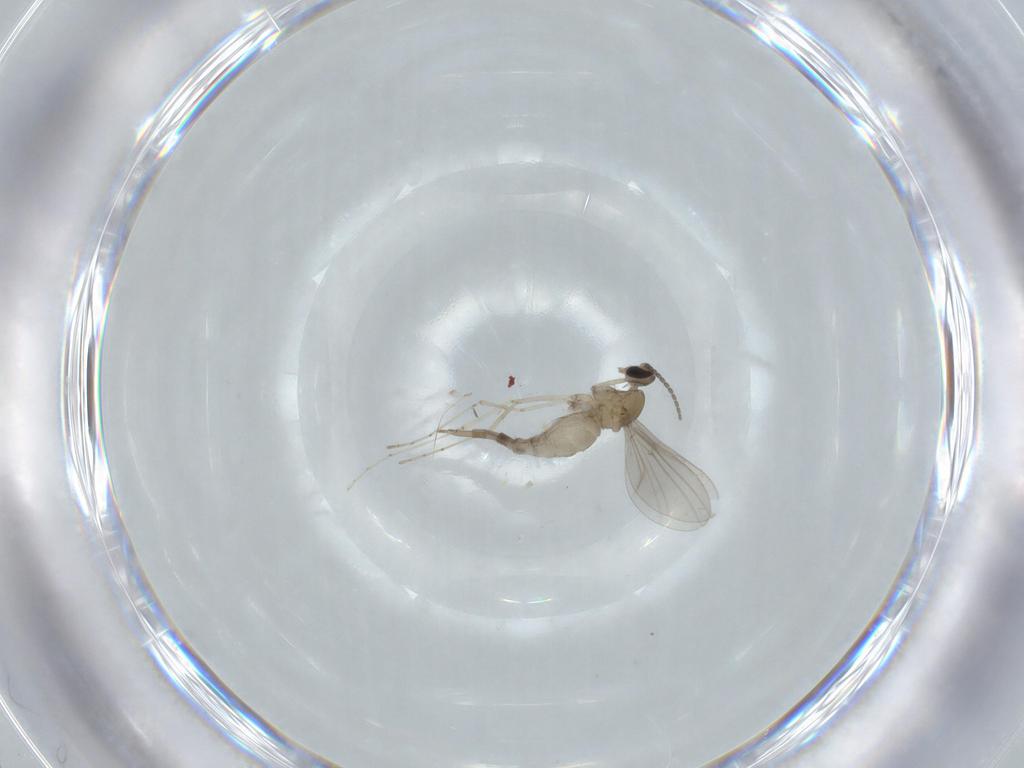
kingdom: Animalia
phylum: Arthropoda
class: Insecta
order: Diptera
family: Cecidomyiidae
